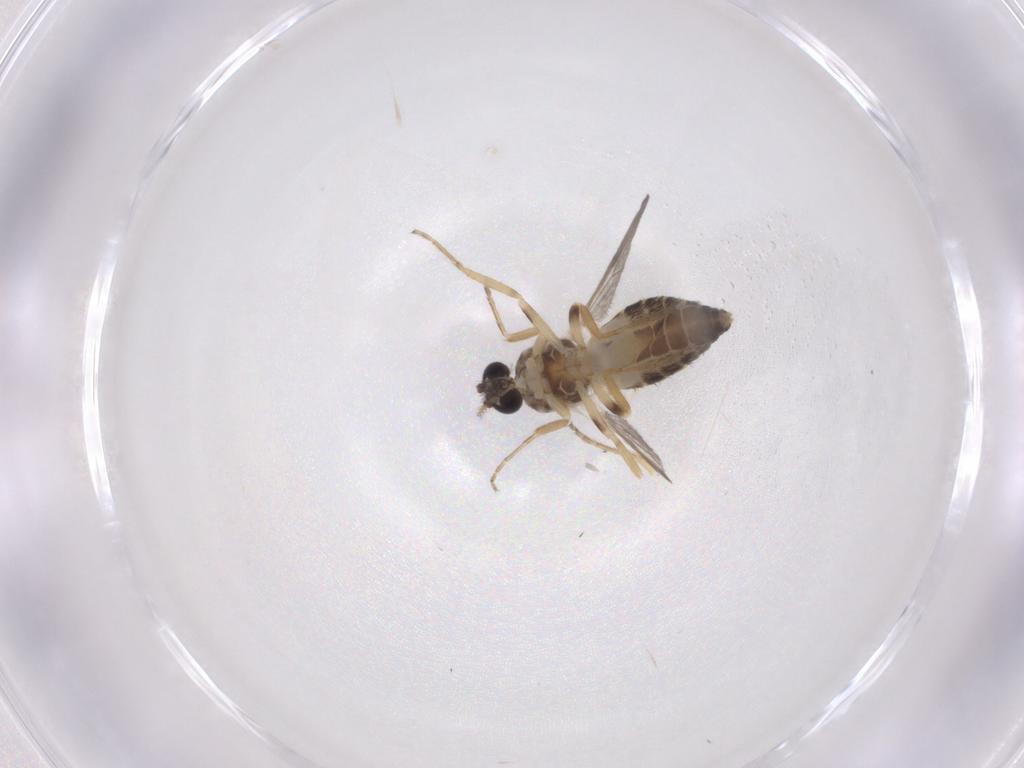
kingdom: Animalia
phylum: Arthropoda
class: Insecta
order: Diptera
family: Ceratopogonidae
